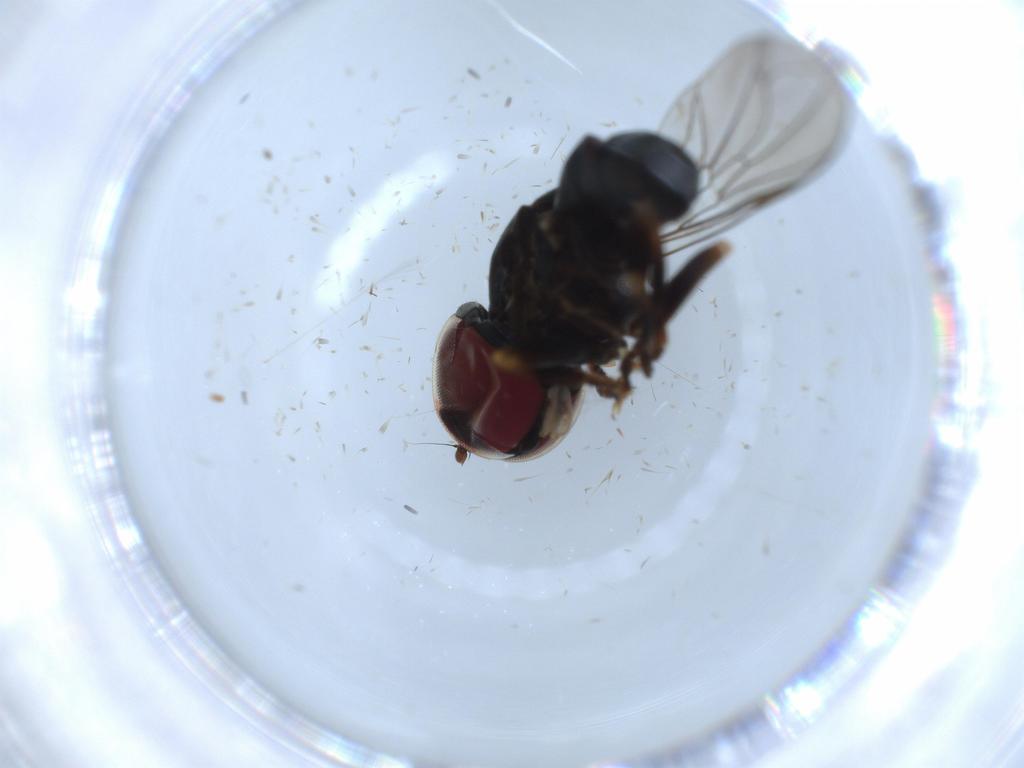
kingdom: Animalia
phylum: Arthropoda
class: Insecta
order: Diptera
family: Pipunculidae
